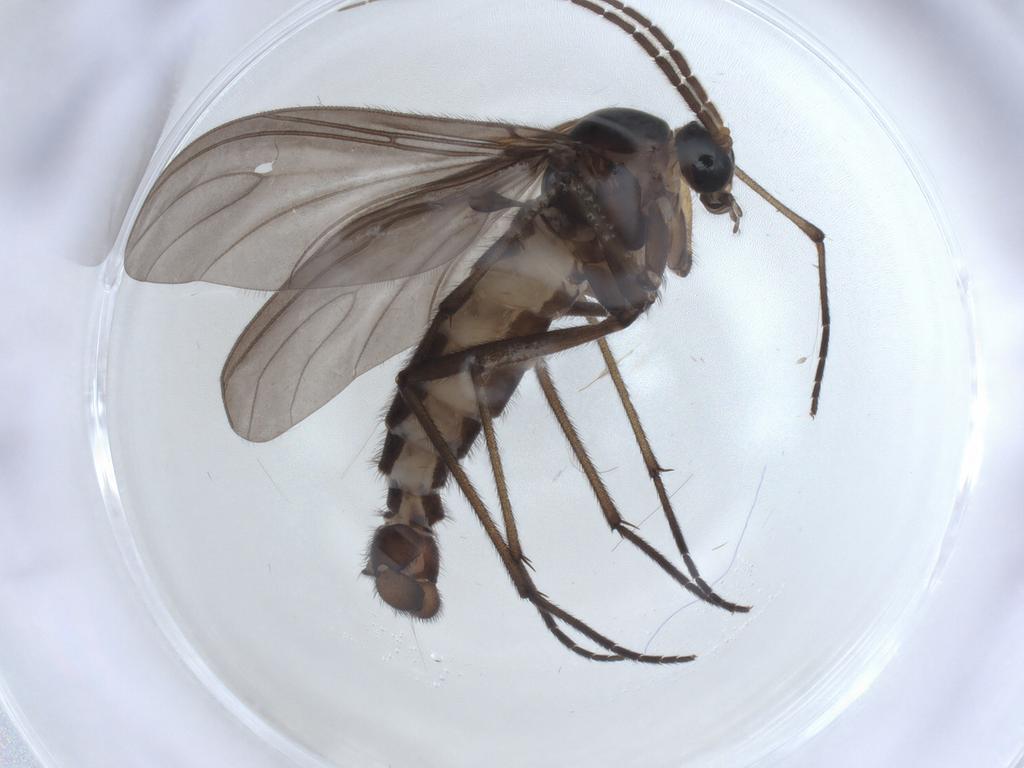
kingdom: Animalia
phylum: Arthropoda
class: Insecta
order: Diptera
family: Sciaridae
